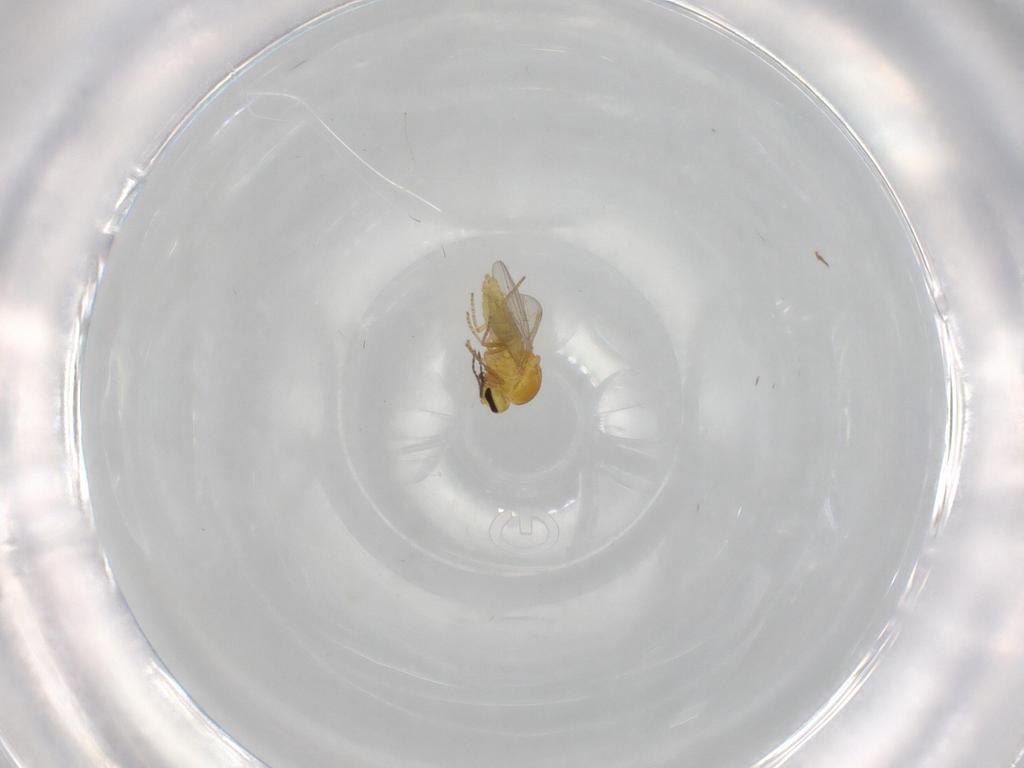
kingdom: Animalia
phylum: Arthropoda
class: Insecta
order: Diptera
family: Ceratopogonidae
